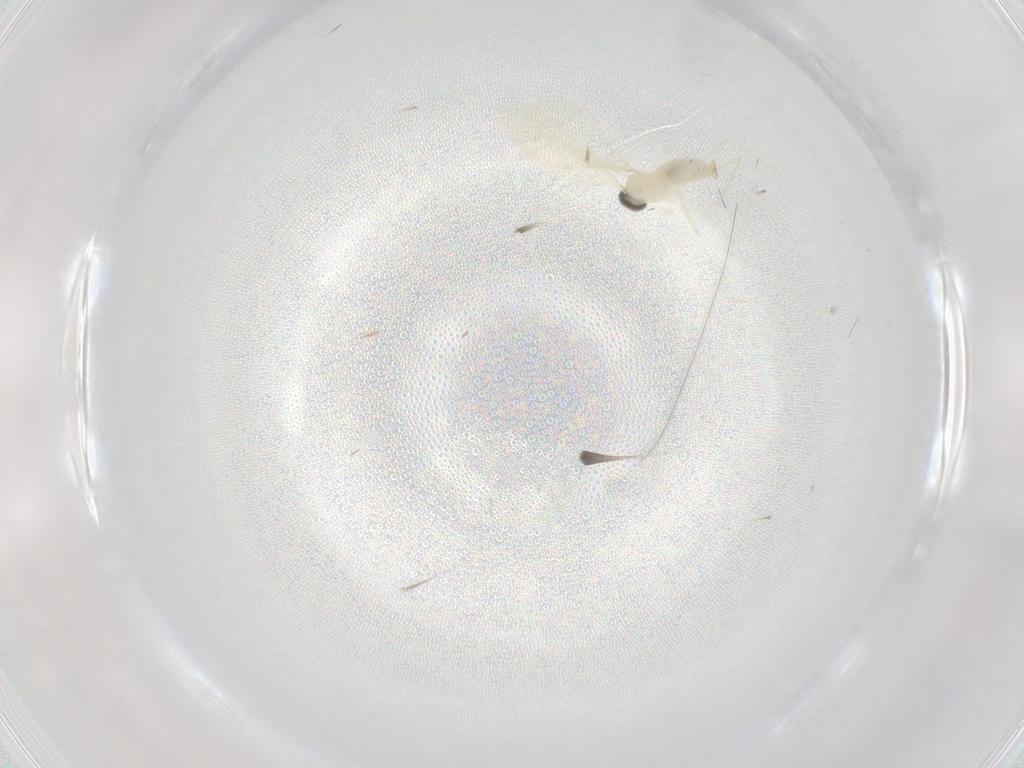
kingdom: Animalia
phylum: Arthropoda
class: Insecta
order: Diptera
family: Cecidomyiidae
